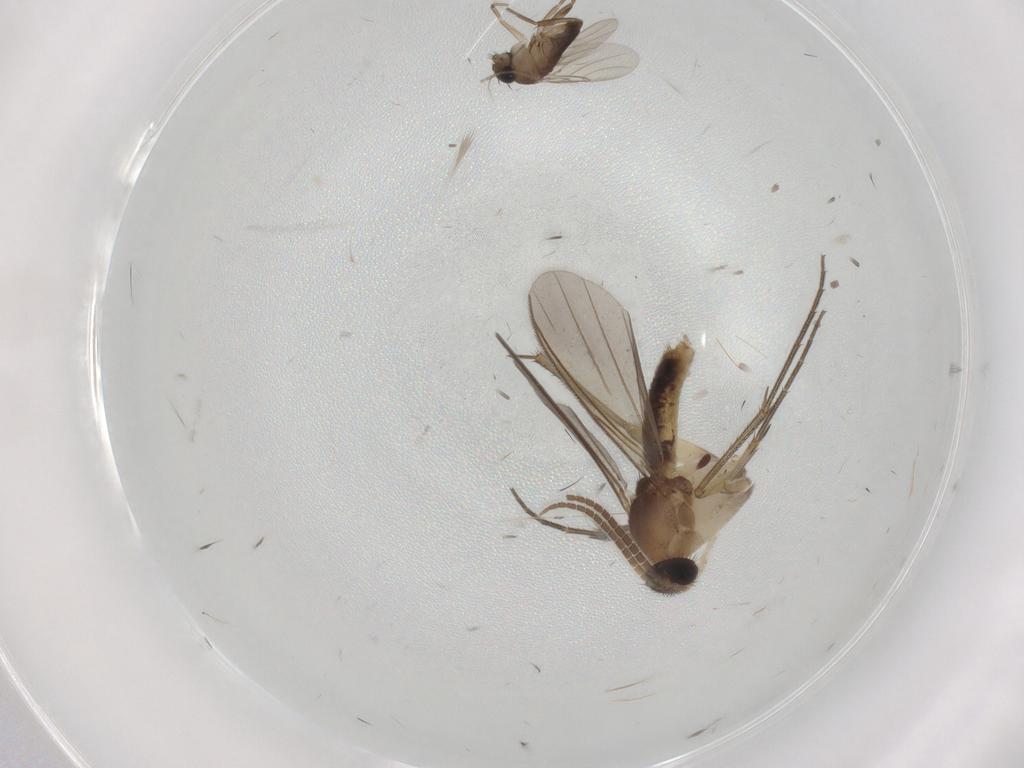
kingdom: Animalia
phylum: Arthropoda
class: Insecta
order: Diptera
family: Mycetophilidae
